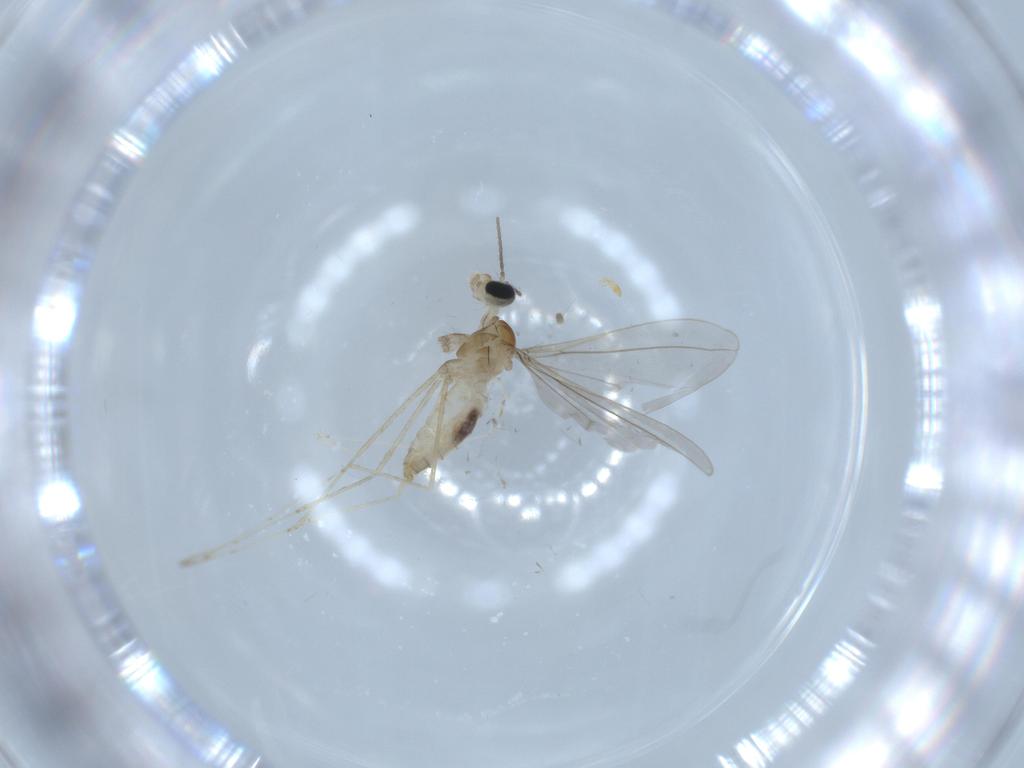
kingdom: Animalia
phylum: Arthropoda
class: Insecta
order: Diptera
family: Cecidomyiidae
